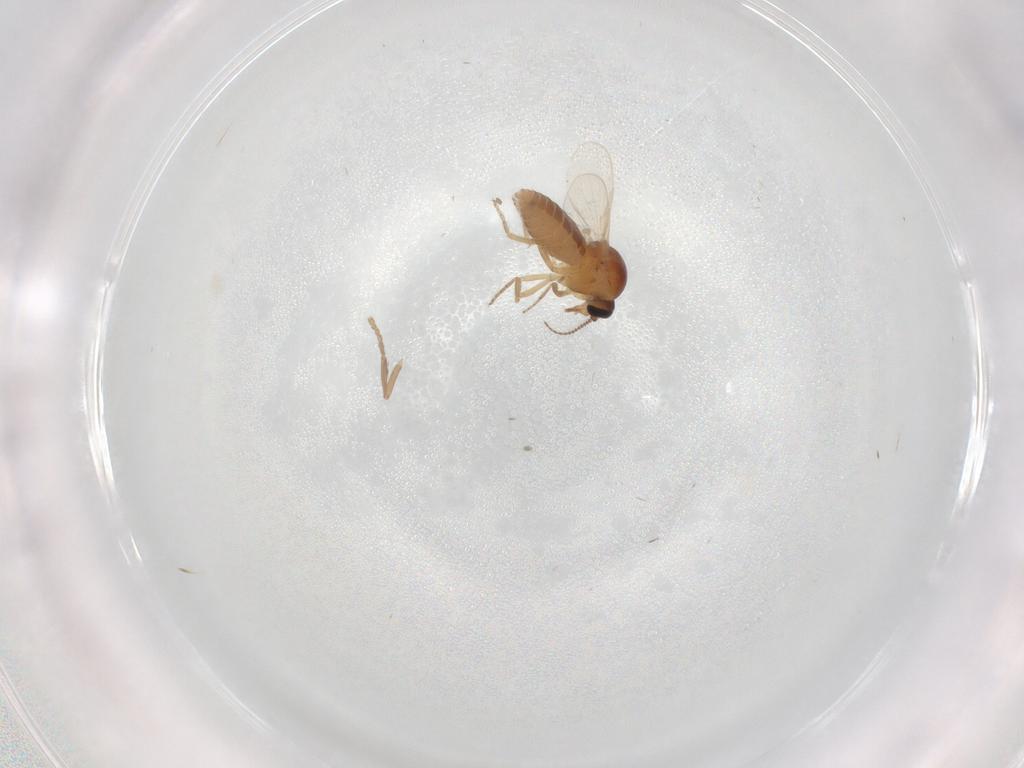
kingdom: Animalia
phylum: Arthropoda
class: Insecta
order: Diptera
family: Ceratopogonidae
